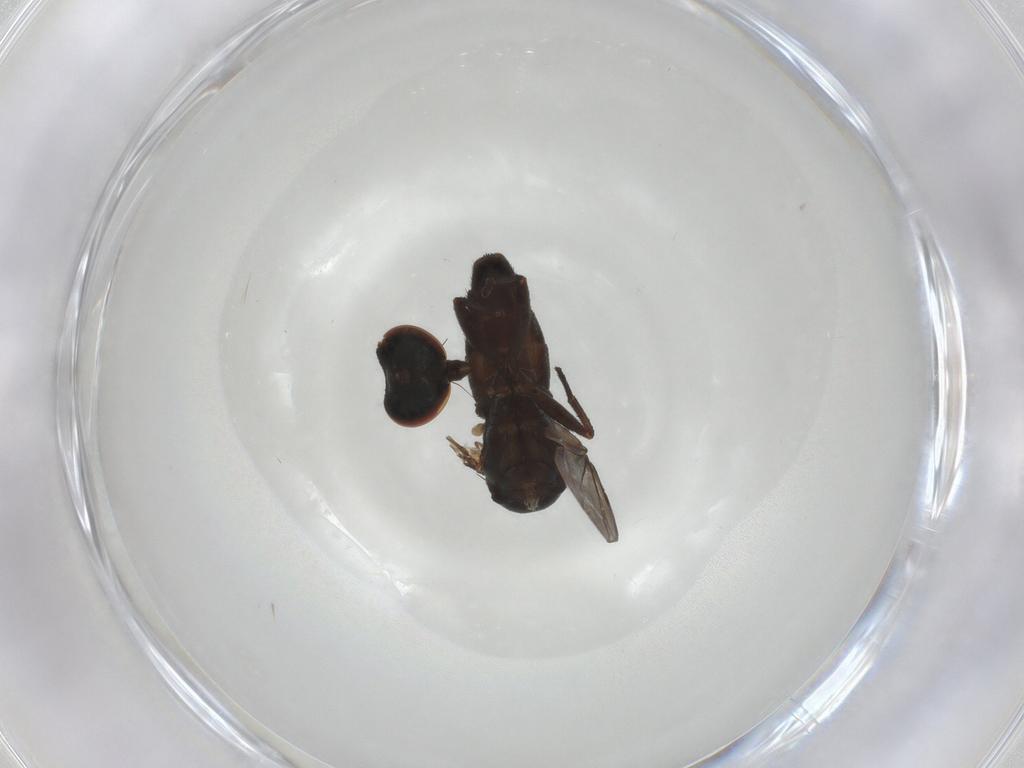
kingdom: Animalia
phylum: Arthropoda
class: Insecta
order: Diptera
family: Dolichopodidae
